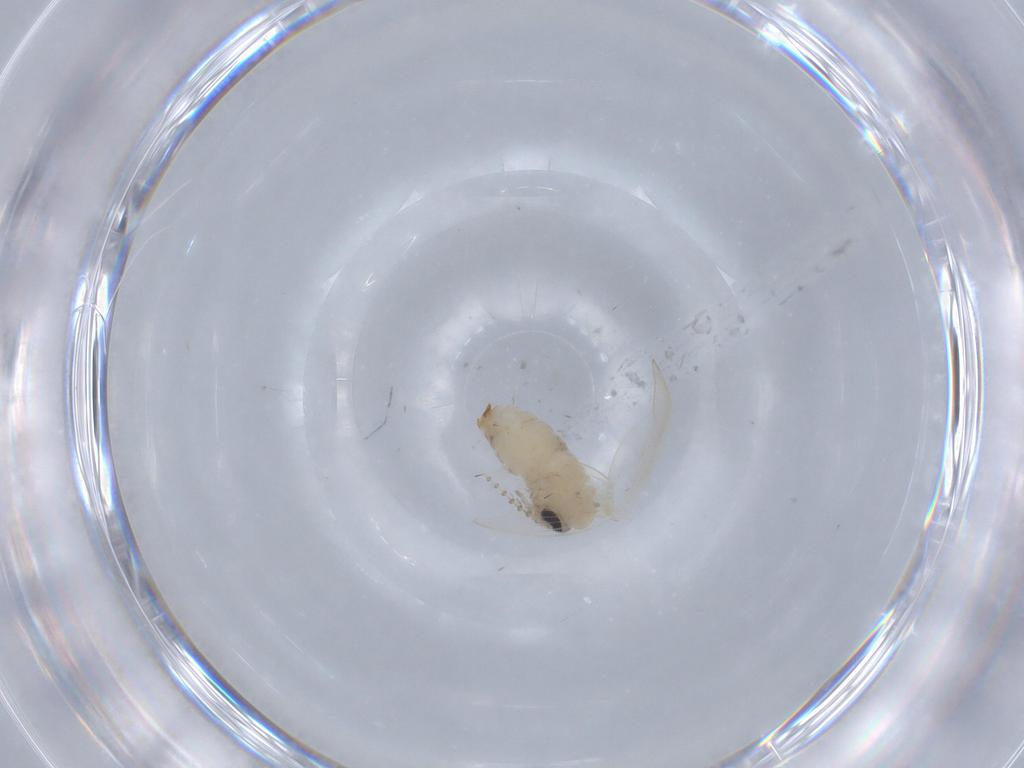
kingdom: Animalia
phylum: Arthropoda
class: Insecta
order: Diptera
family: Psychodidae
